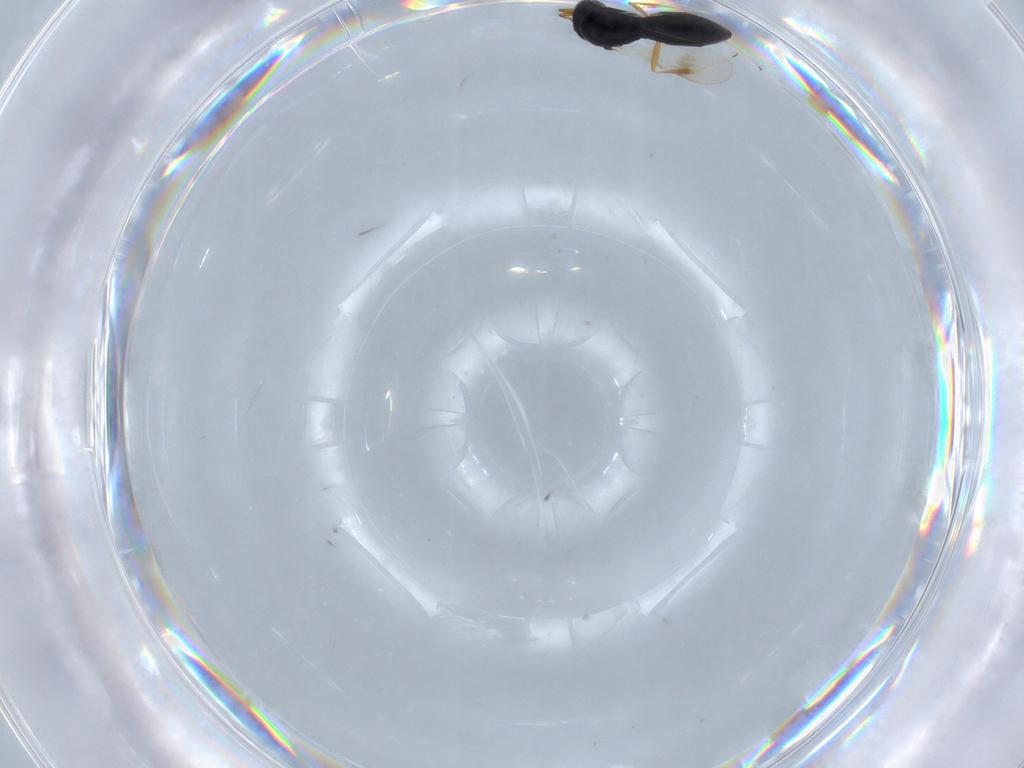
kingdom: Animalia
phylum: Arthropoda
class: Insecta
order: Hymenoptera
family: Scelionidae
